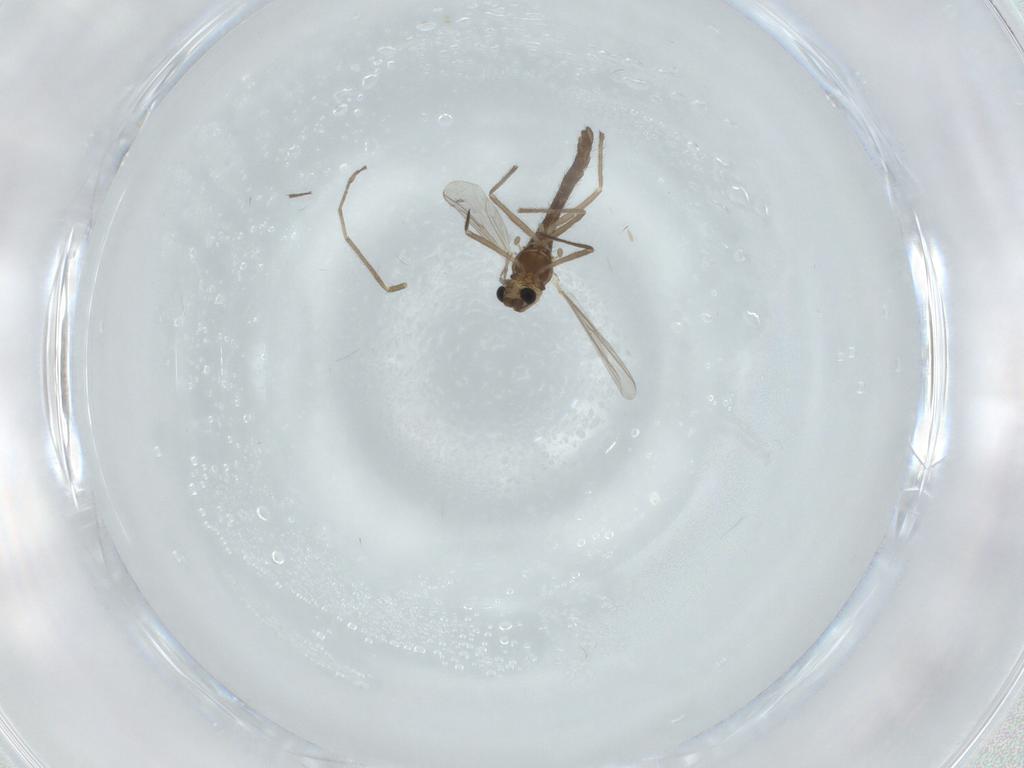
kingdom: Animalia
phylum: Arthropoda
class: Insecta
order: Diptera
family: Chironomidae
